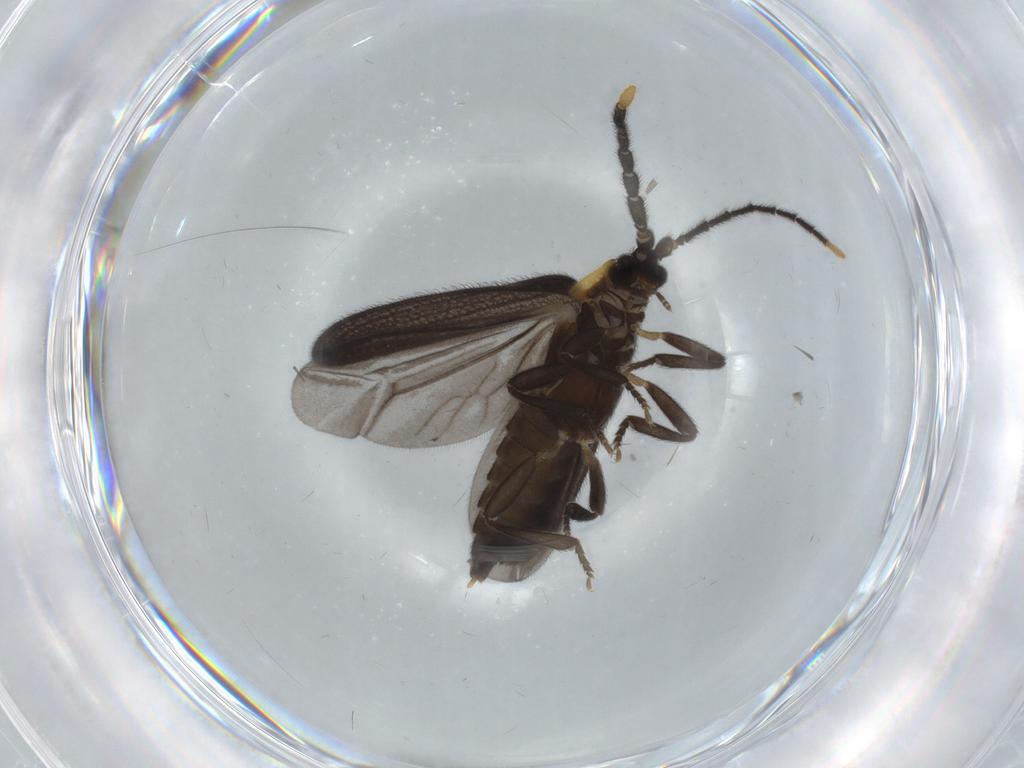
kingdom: Animalia
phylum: Arthropoda
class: Insecta
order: Coleoptera
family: Lycidae
